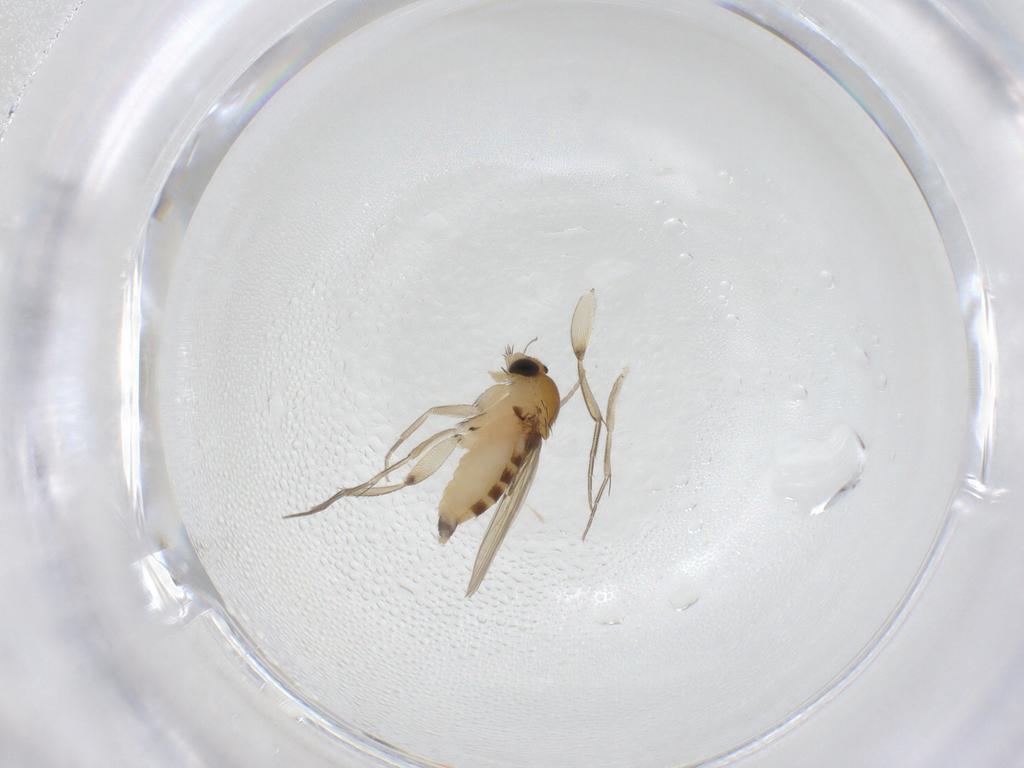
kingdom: Animalia
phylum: Arthropoda
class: Insecta
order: Diptera
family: Phoridae
